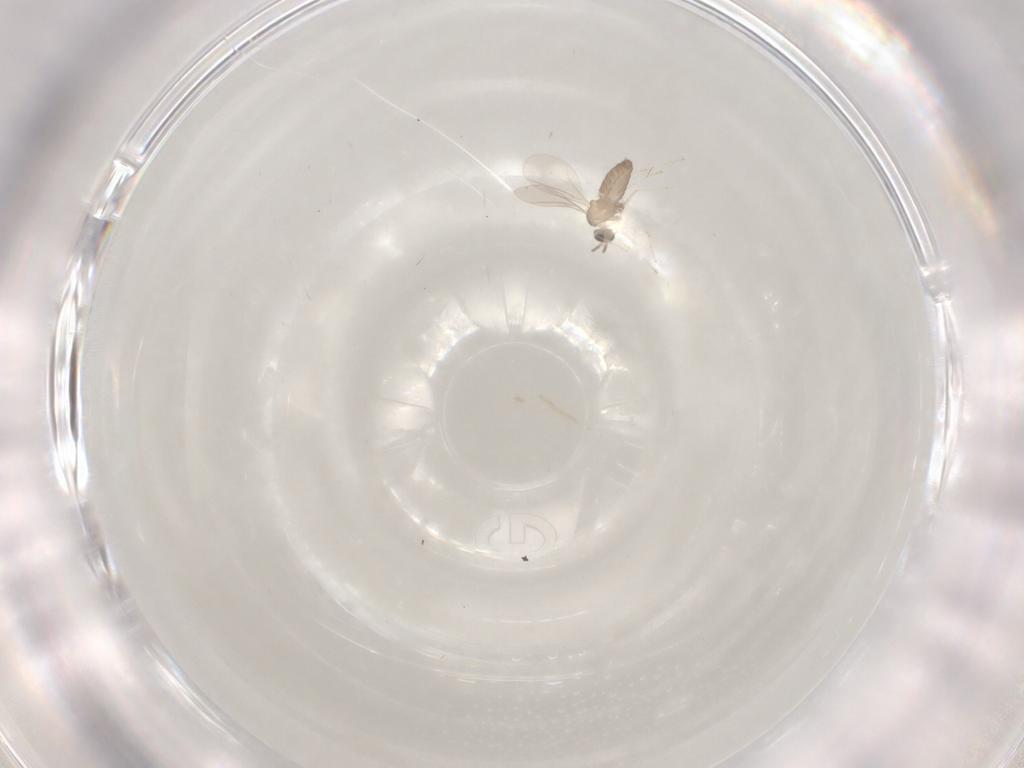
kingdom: Animalia
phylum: Arthropoda
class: Insecta
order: Diptera
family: Cecidomyiidae
